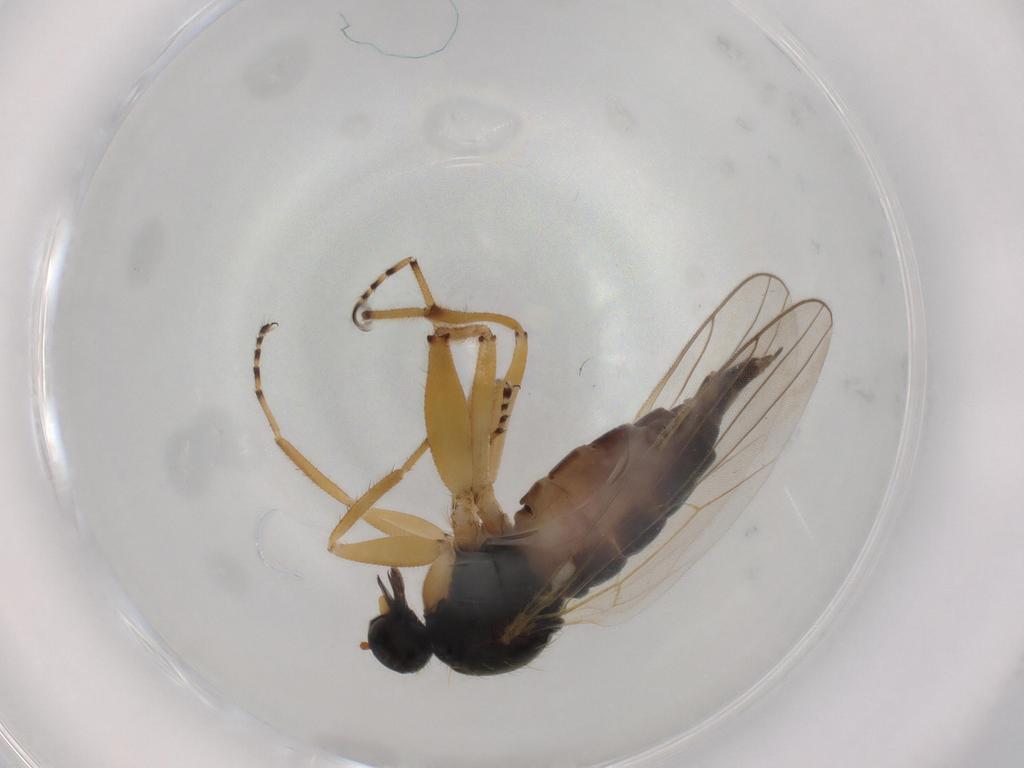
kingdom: Animalia
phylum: Arthropoda
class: Insecta
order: Diptera
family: Hybotidae
